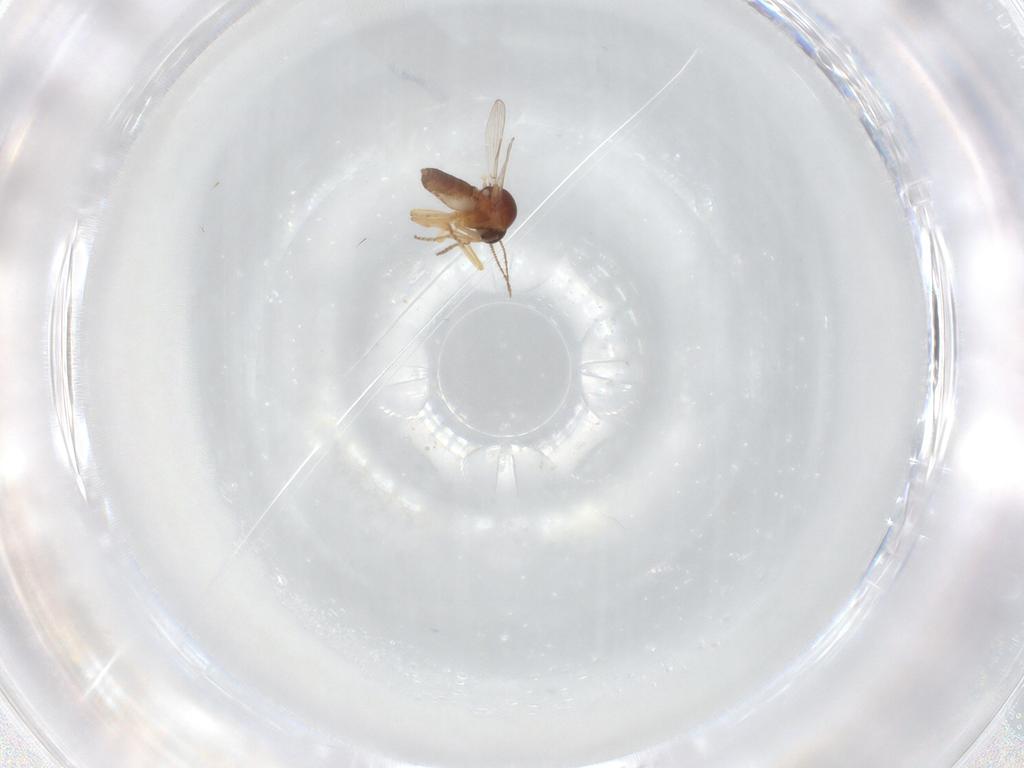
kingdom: Animalia
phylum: Arthropoda
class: Insecta
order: Diptera
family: Ceratopogonidae
